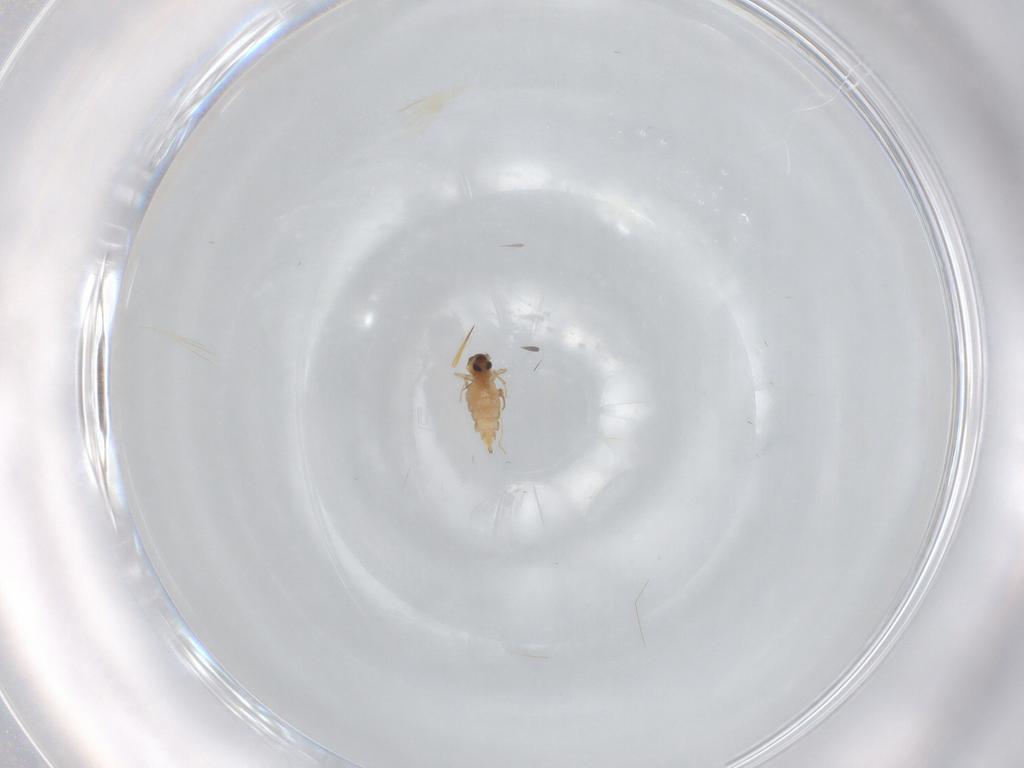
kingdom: Animalia
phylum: Arthropoda
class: Insecta
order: Diptera
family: Cecidomyiidae
